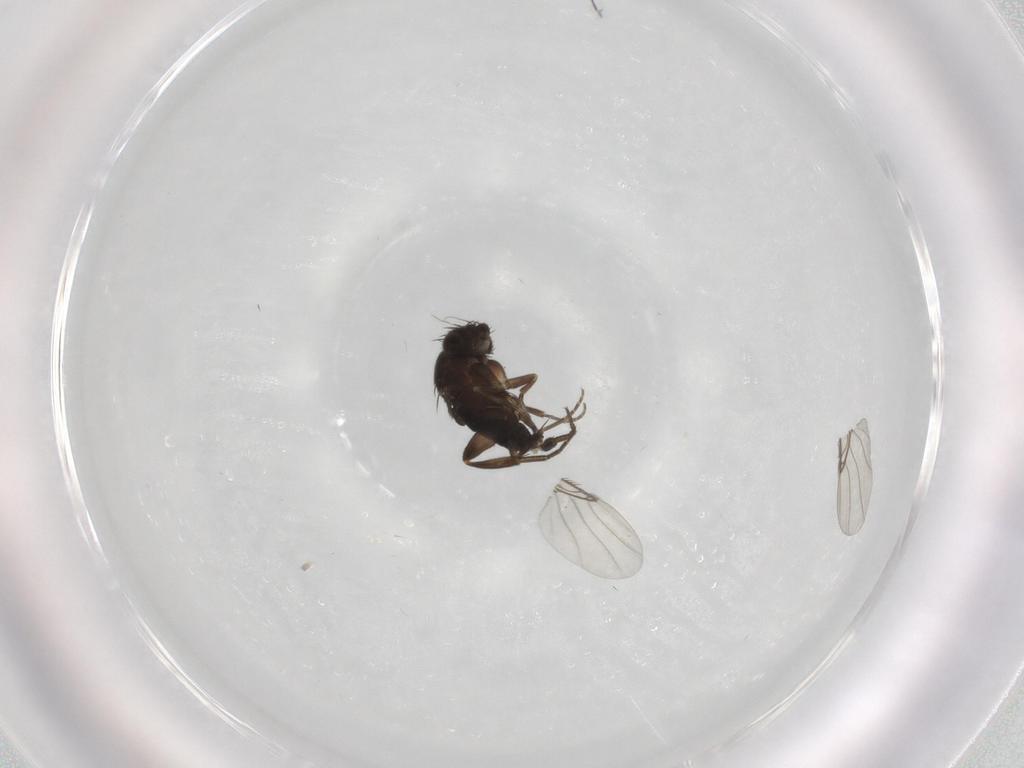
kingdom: Animalia
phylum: Arthropoda
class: Insecta
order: Diptera
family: Phoridae
